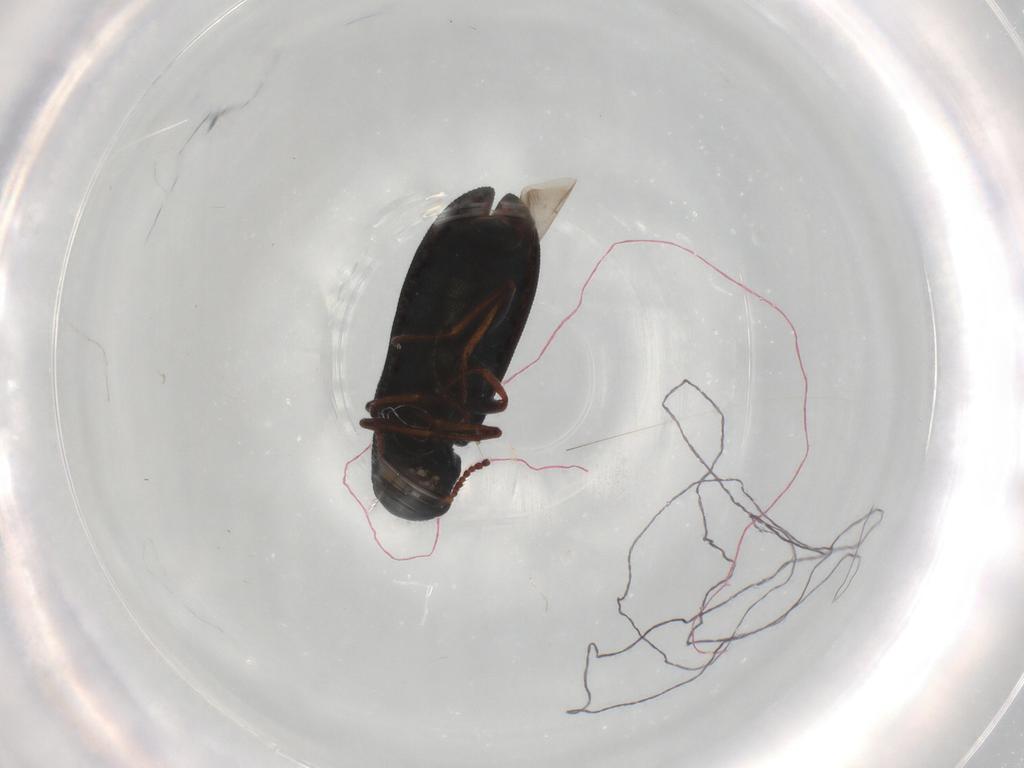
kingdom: Animalia
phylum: Arthropoda
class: Insecta
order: Coleoptera
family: Melyridae
